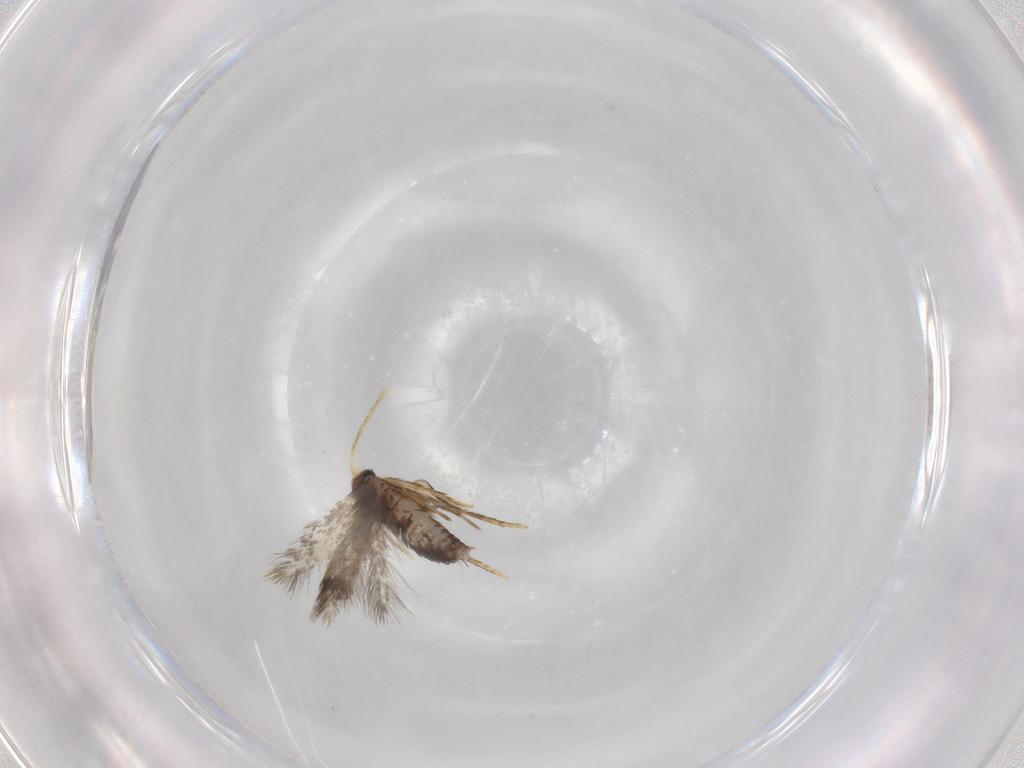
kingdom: Animalia
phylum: Arthropoda
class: Insecta
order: Lepidoptera
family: Copromorphidae
